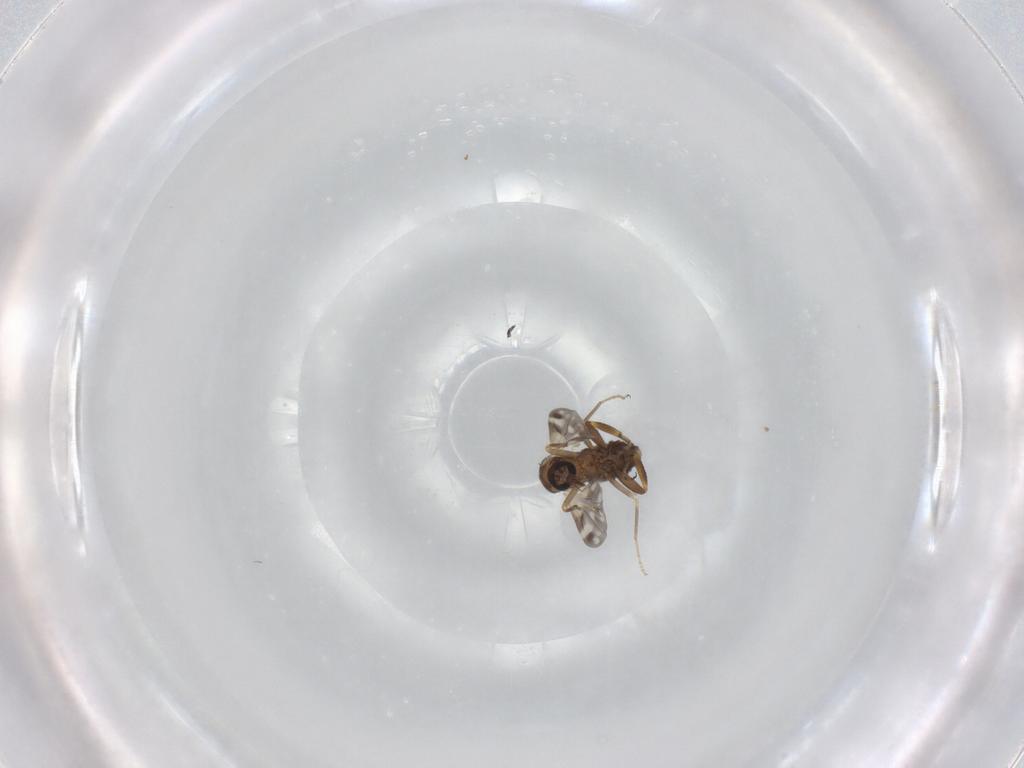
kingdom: Animalia
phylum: Arthropoda
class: Insecta
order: Diptera
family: Ceratopogonidae
